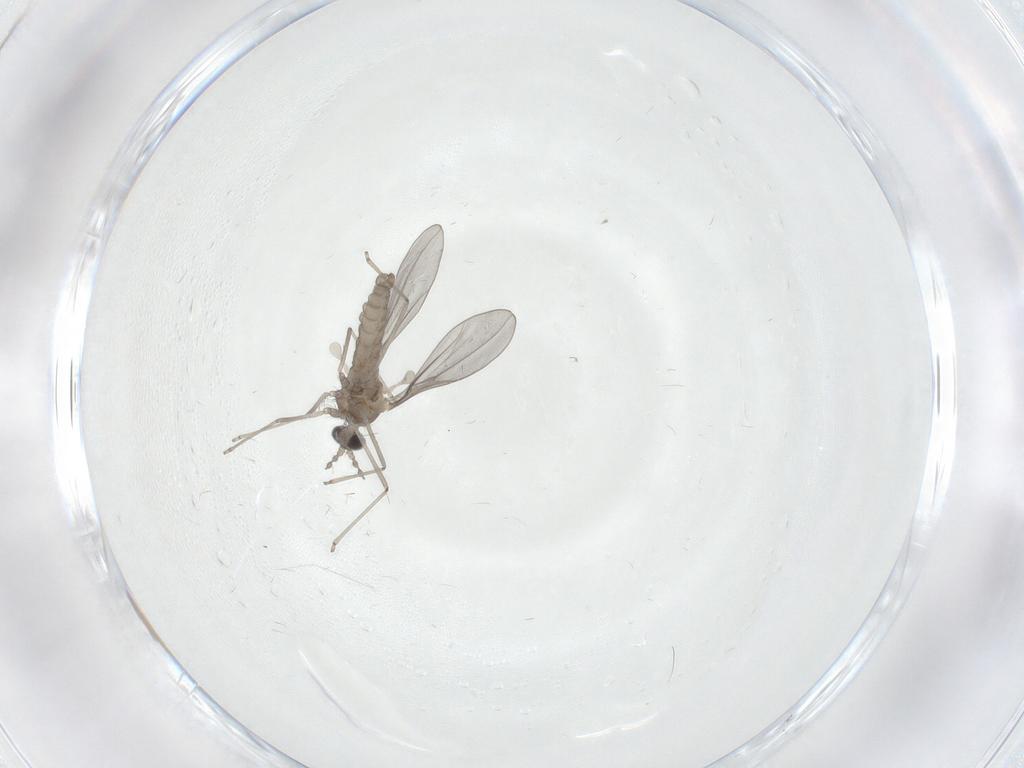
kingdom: Animalia
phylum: Arthropoda
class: Insecta
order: Diptera
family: Cecidomyiidae
